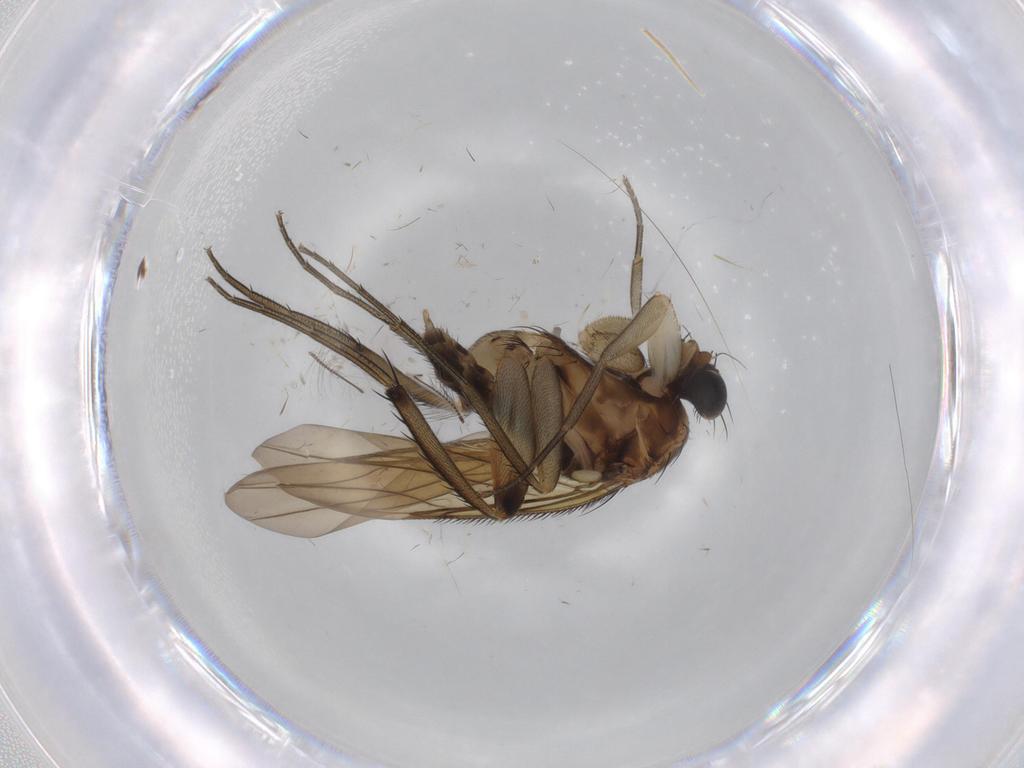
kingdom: Animalia
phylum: Arthropoda
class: Insecta
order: Diptera
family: Cecidomyiidae
